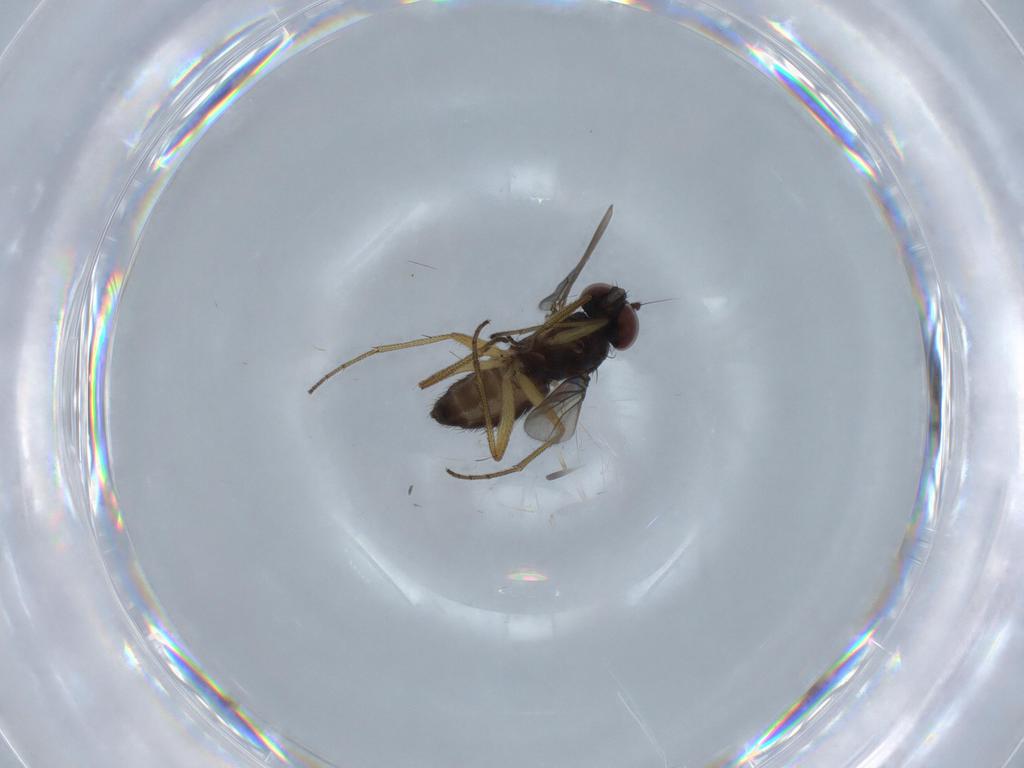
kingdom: Animalia
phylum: Arthropoda
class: Insecta
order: Diptera
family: Dolichopodidae
